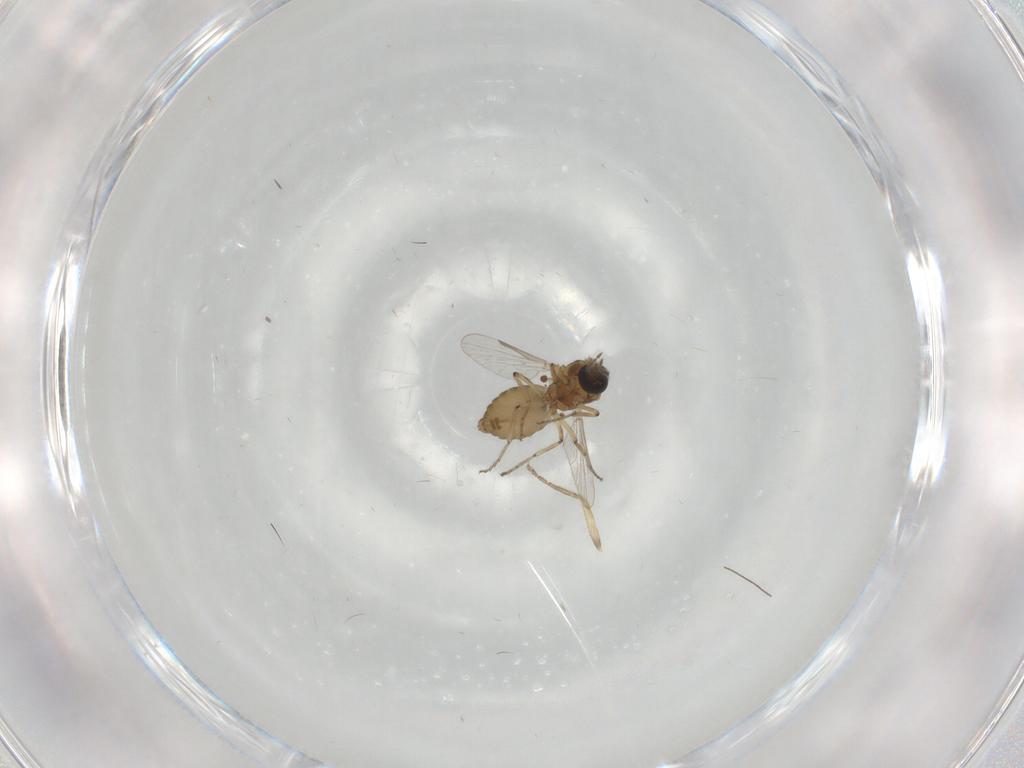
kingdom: Animalia
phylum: Arthropoda
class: Insecta
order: Diptera
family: Ceratopogonidae
